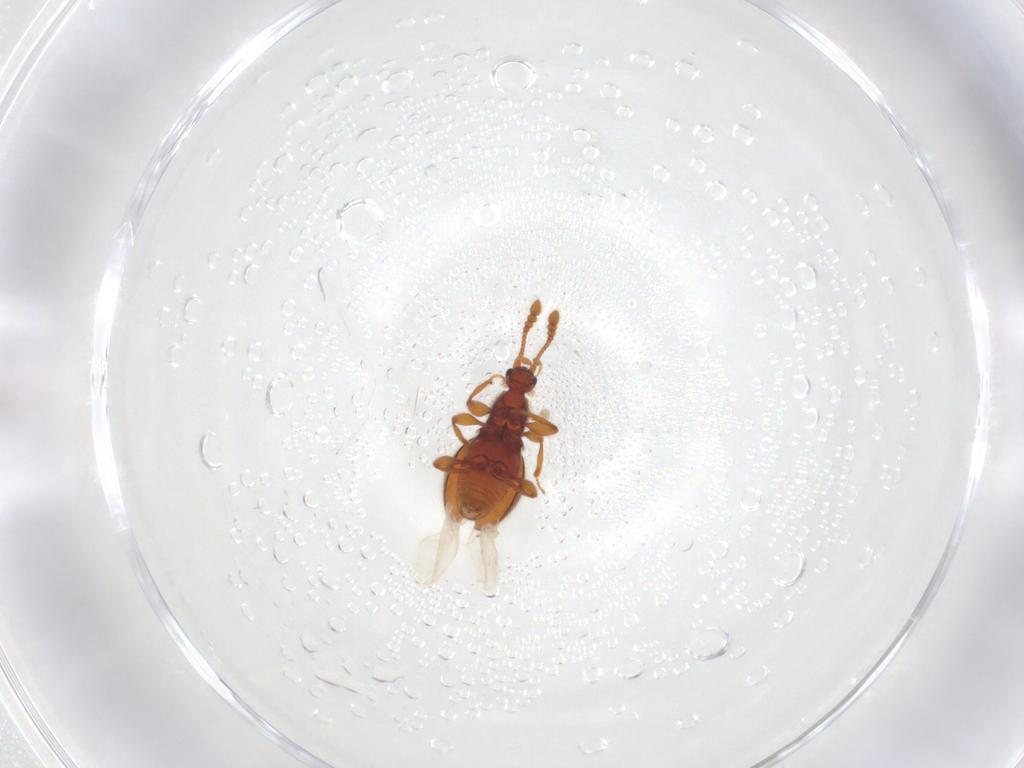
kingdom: Animalia
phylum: Arthropoda
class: Insecta
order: Coleoptera
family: Staphylinidae
